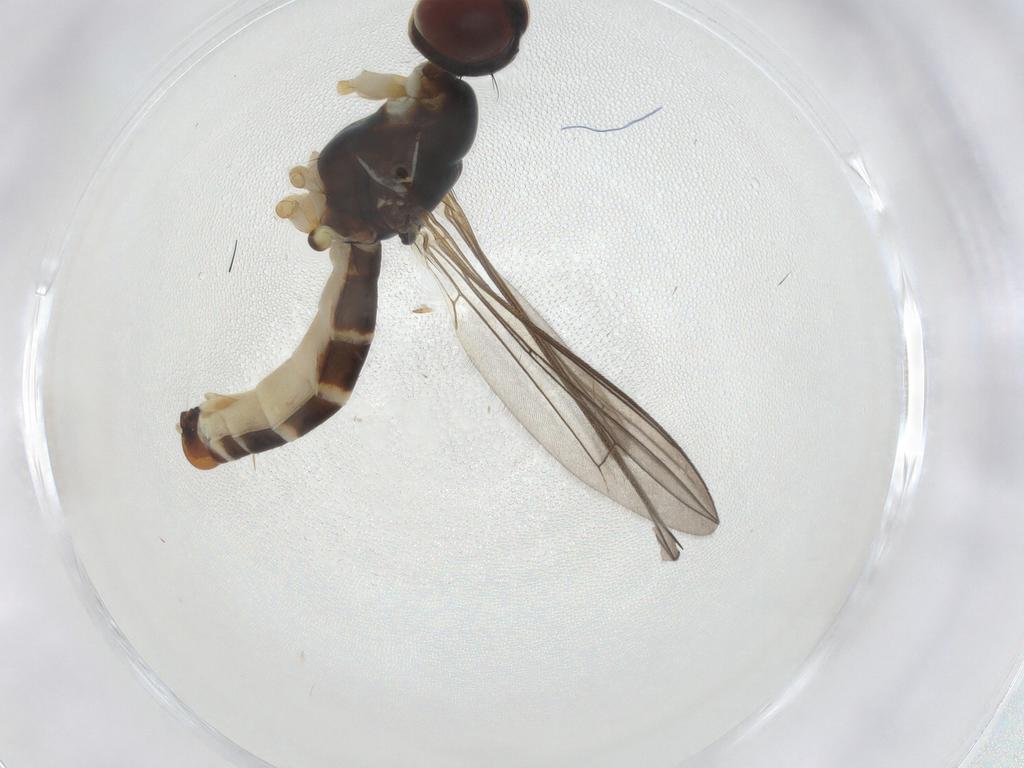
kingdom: Animalia
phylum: Arthropoda
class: Insecta
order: Diptera
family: Micropezidae
